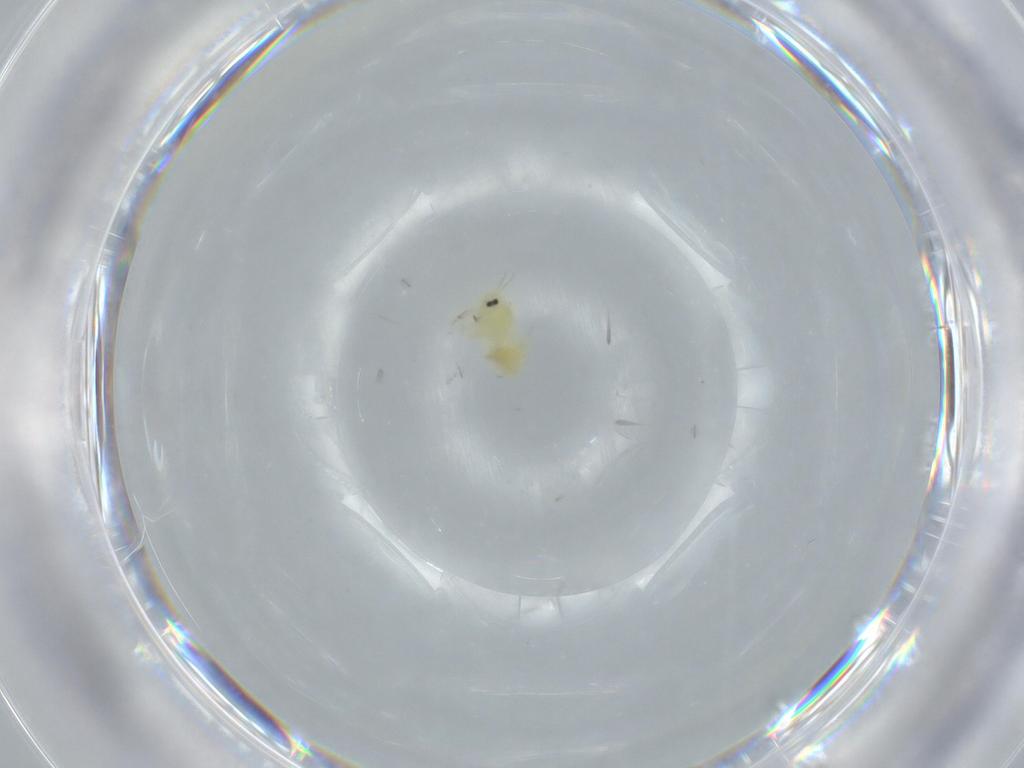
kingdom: Animalia
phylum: Arthropoda
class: Insecta
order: Hemiptera
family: Aleyrodidae
